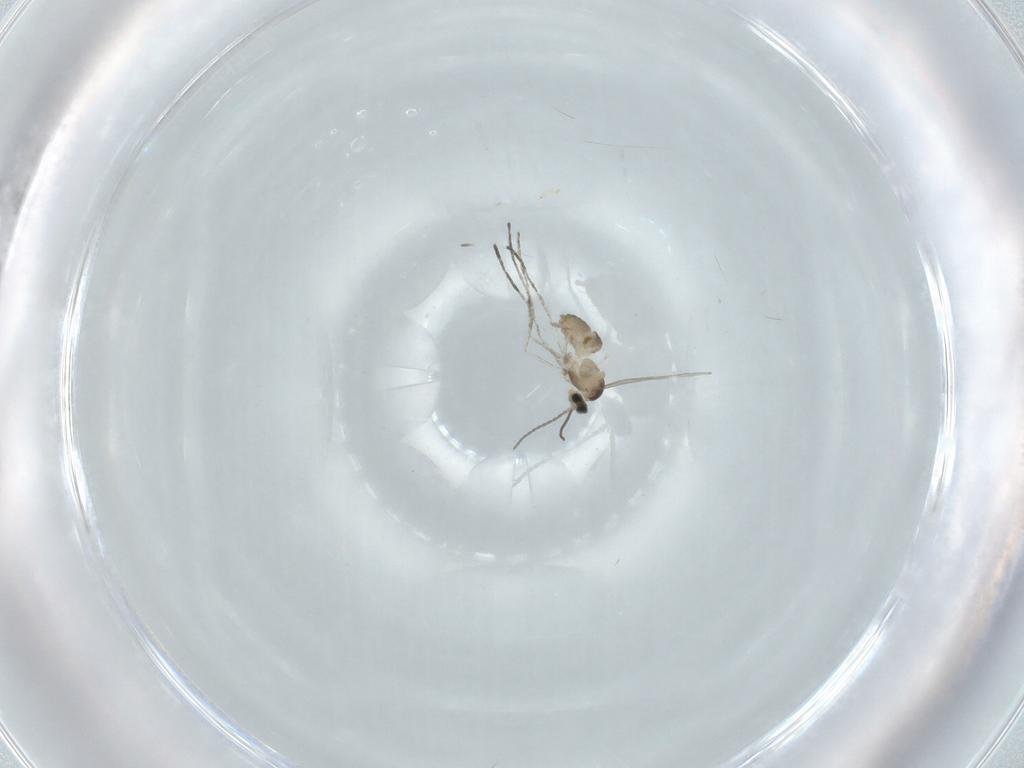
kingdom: Animalia
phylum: Arthropoda
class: Insecta
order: Diptera
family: Cecidomyiidae
